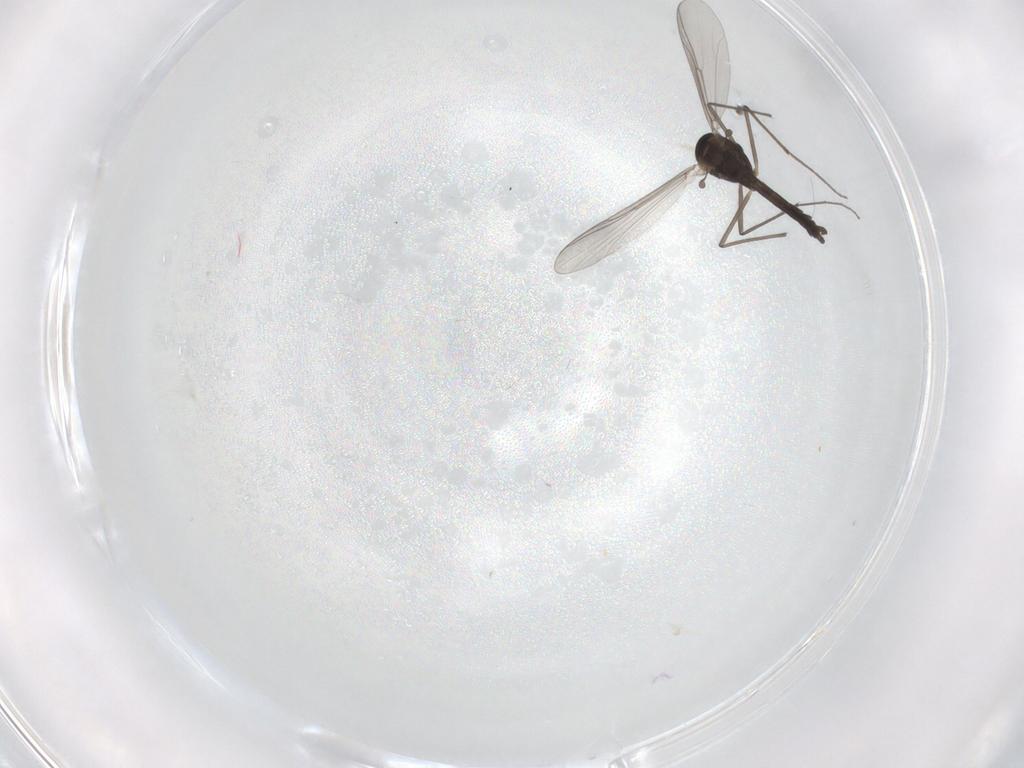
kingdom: Animalia
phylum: Arthropoda
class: Insecta
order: Diptera
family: Chironomidae
